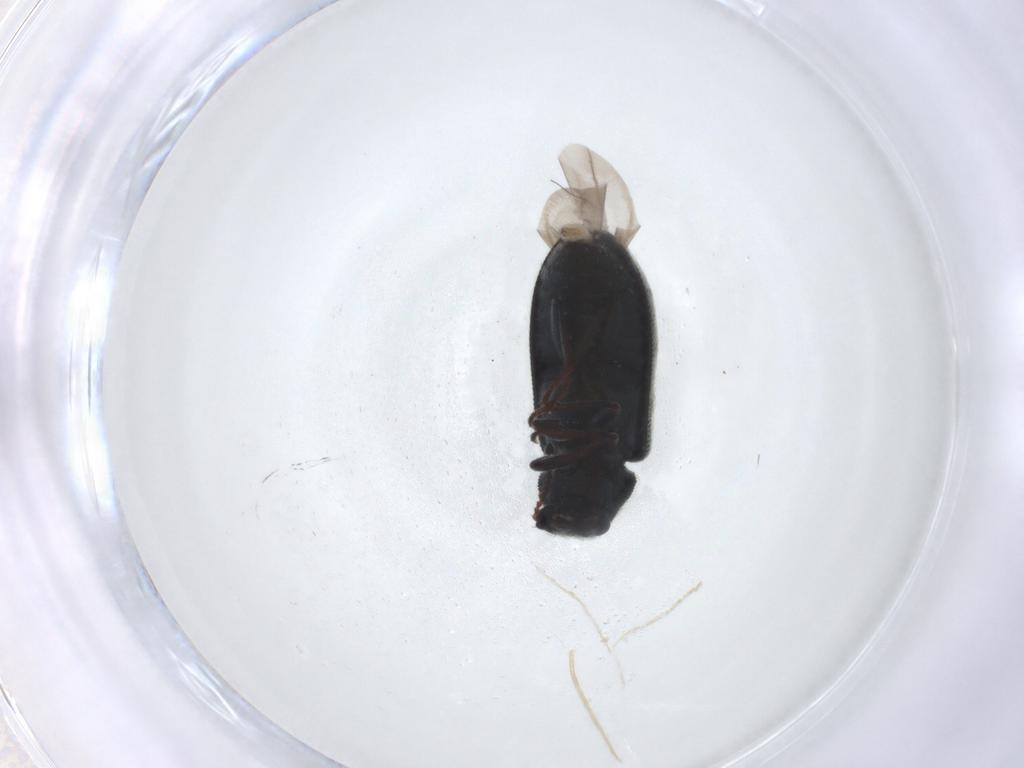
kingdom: Animalia
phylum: Arthropoda
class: Insecta
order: Coleoptera
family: Melyridae
